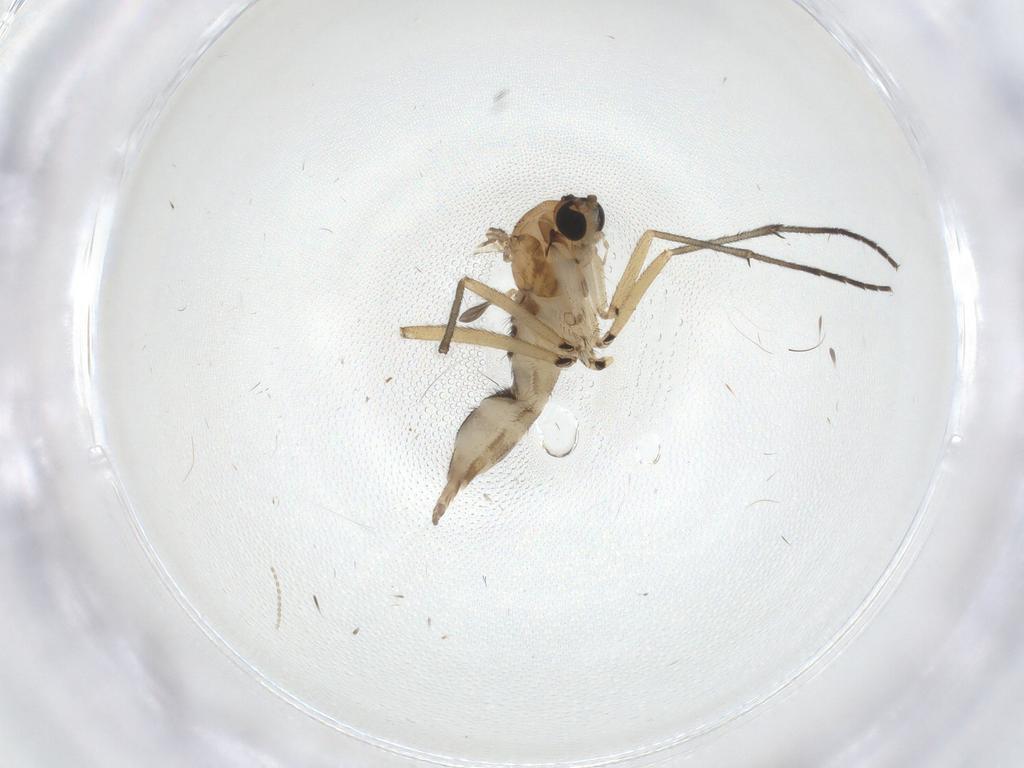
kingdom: Animalia
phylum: Arthropoda
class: Insecta
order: Diptera
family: Sciaridae
